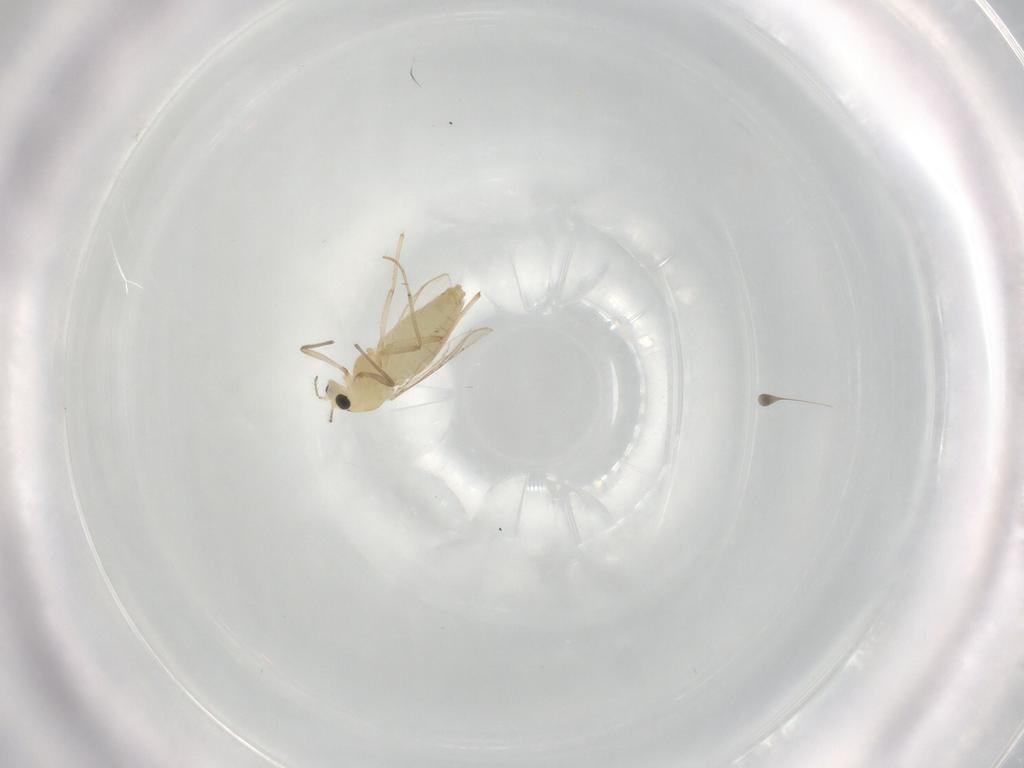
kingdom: Animalia
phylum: Arthropoda
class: Insecta
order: Diptera
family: Chironomidae
